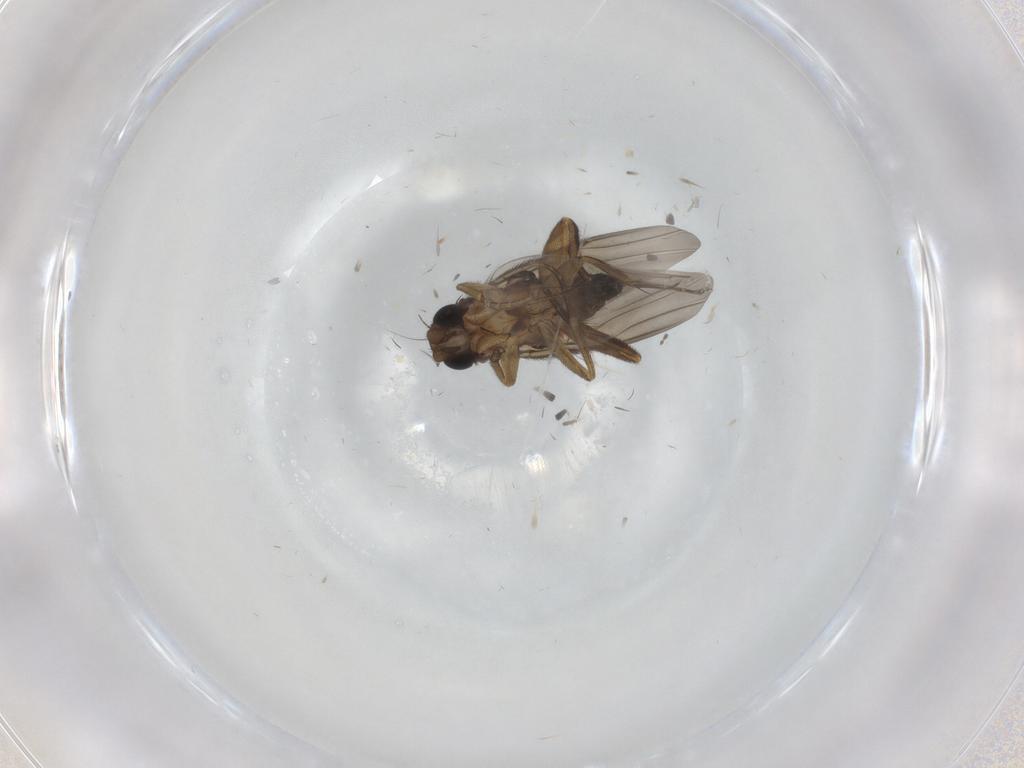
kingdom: Animalia
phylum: Arthropoda
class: Insecta
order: Diptera
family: Phoridae
